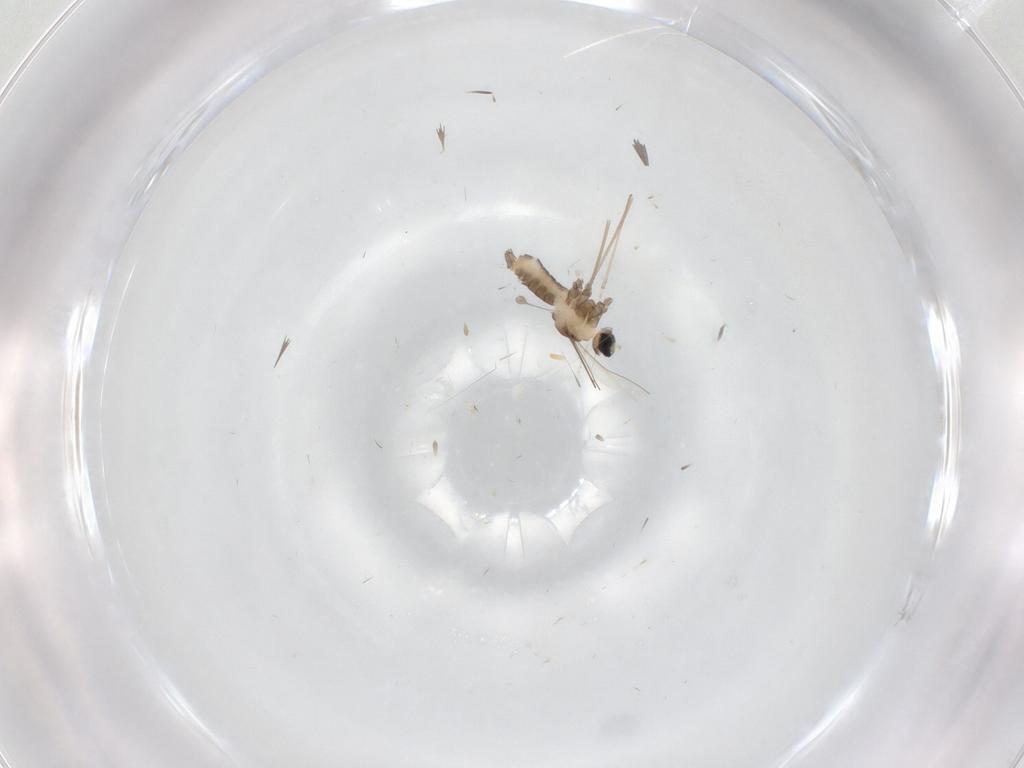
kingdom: Animalia
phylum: Arthropoda
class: Insecta
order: Diptera
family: Cecidomyiidae
